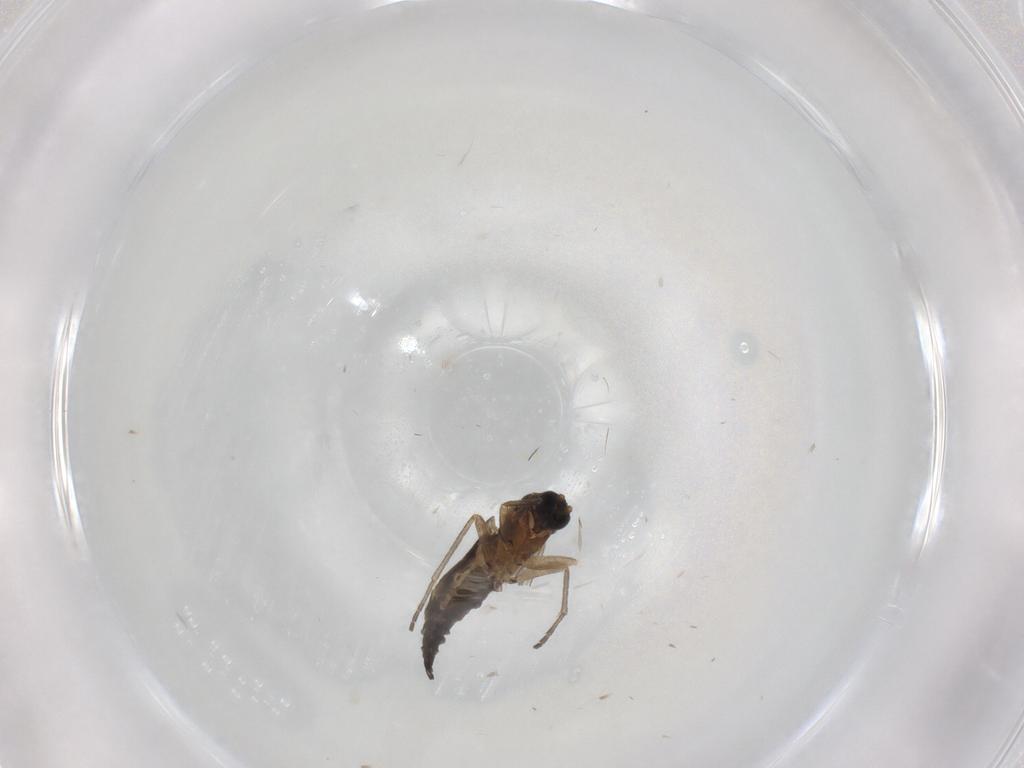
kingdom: Animalia
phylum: Arthropoda
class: Insecta
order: Diptera
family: Sciaridae
